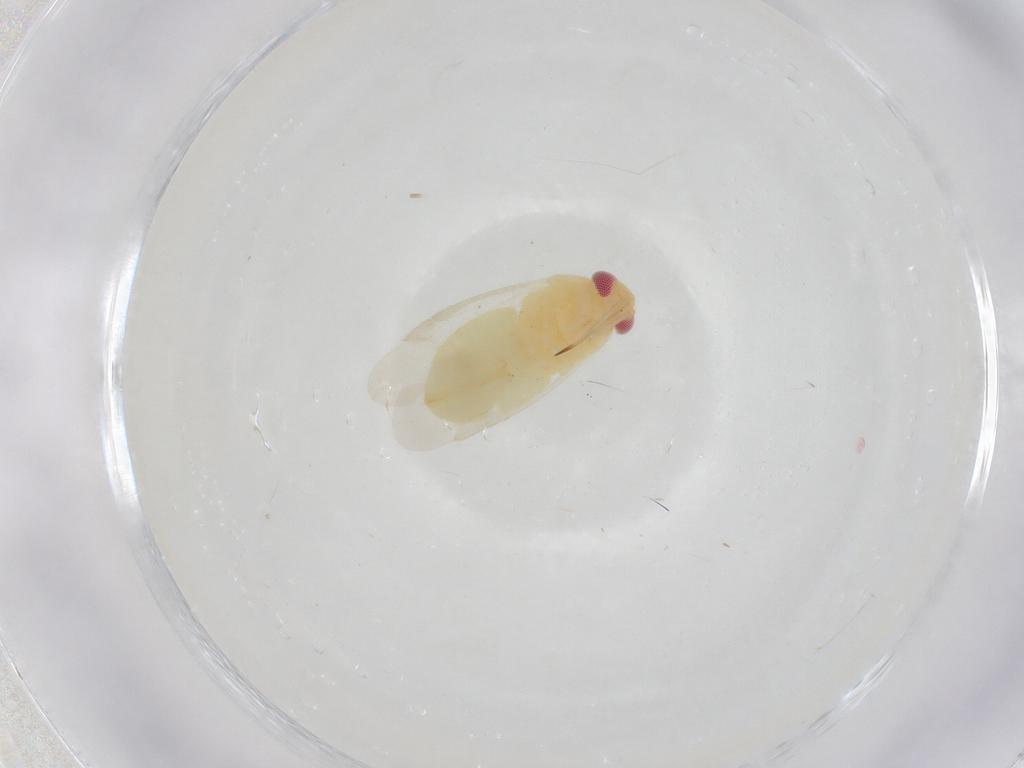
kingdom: Animalia
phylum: Arthropoda
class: Insecta
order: Hemiptera
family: Miridae
